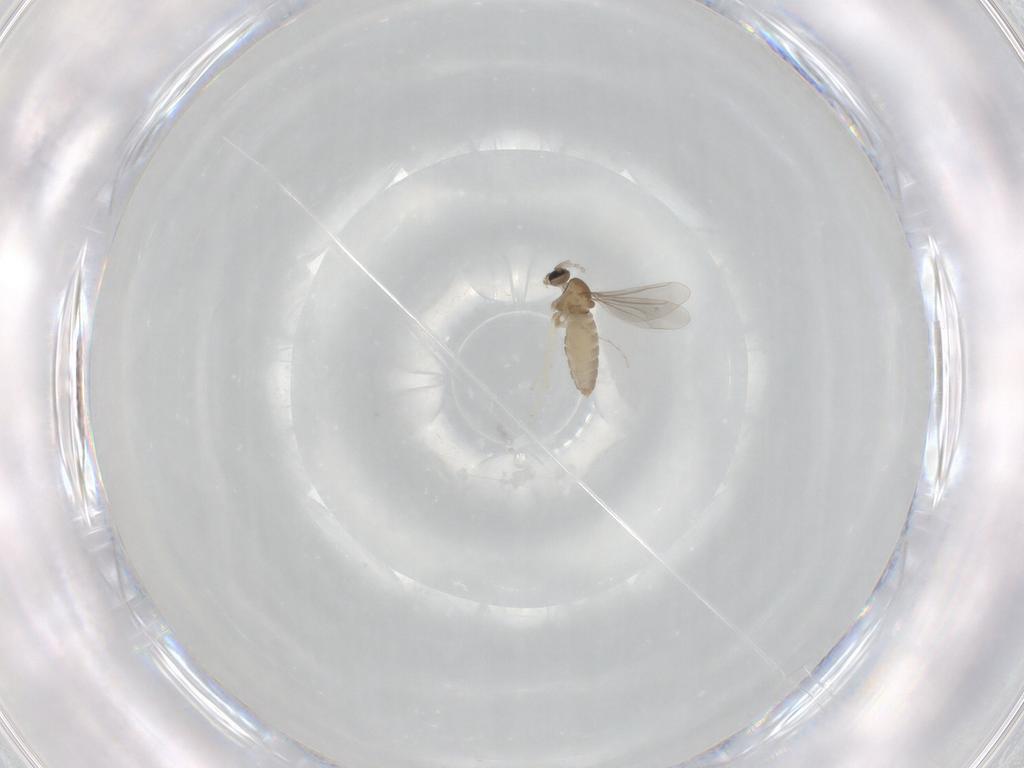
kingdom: Animalia
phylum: Arthropoda
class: Insecta
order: Diptera
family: Cecidomyiidae
